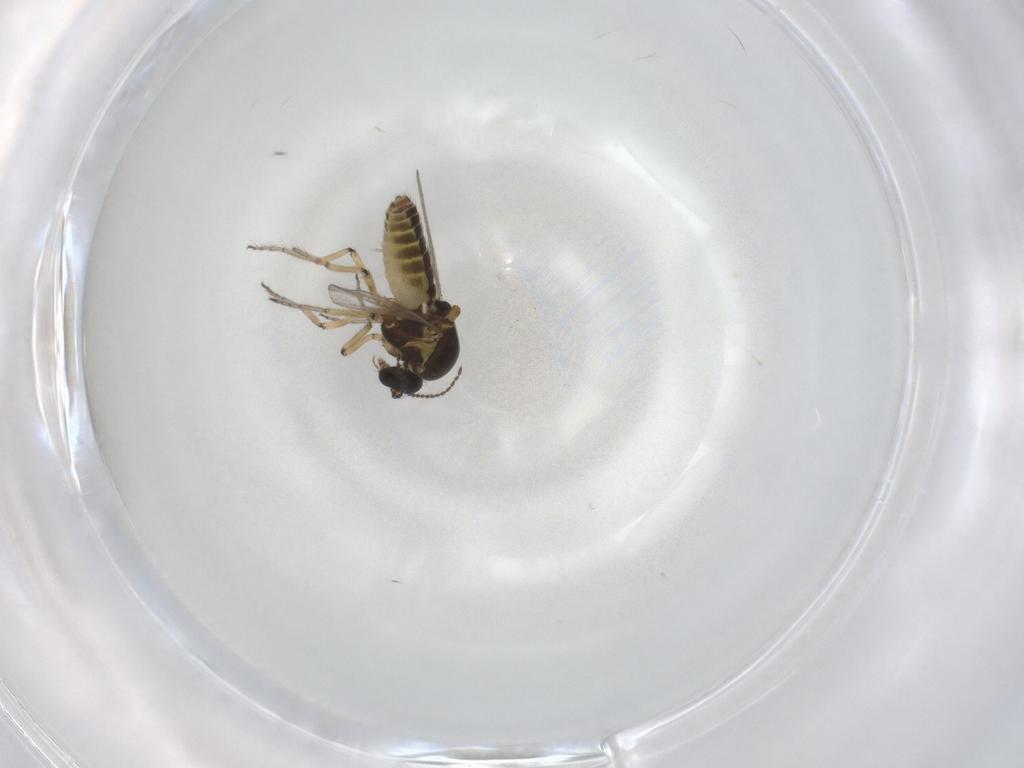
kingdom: Animalia
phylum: Arthropoda
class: Insecta
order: Diptera
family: Ceratopogonidae
